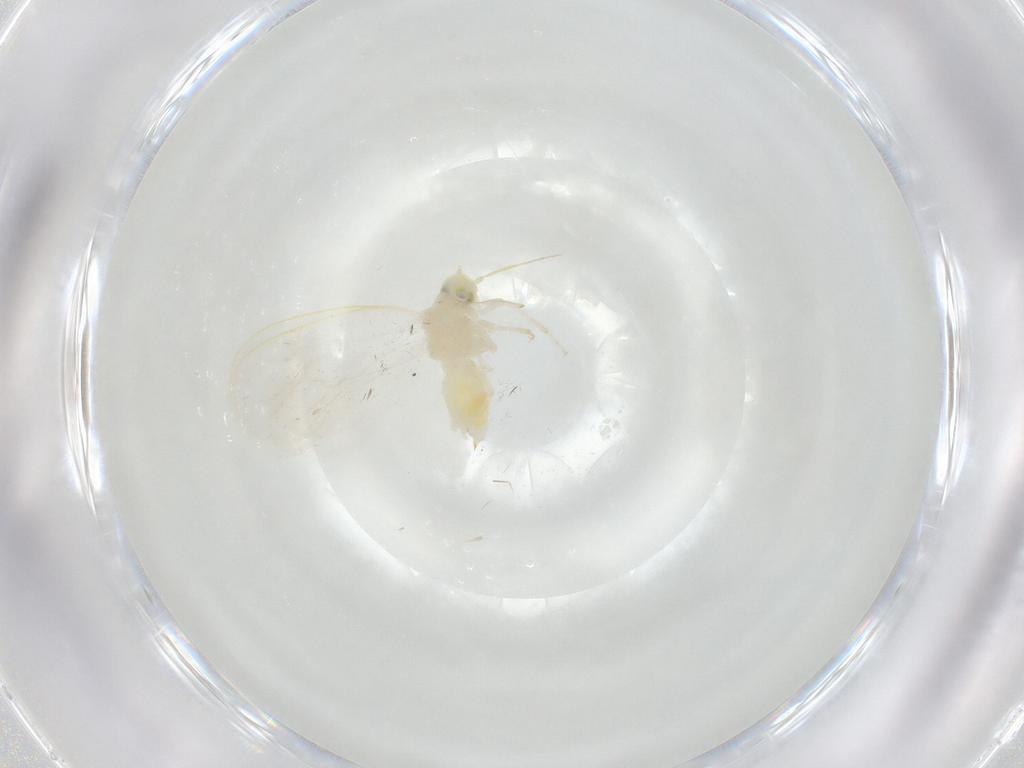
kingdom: Animalia
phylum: Arthropoda
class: Insecta
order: Hemiptera
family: Aleyrodidae
